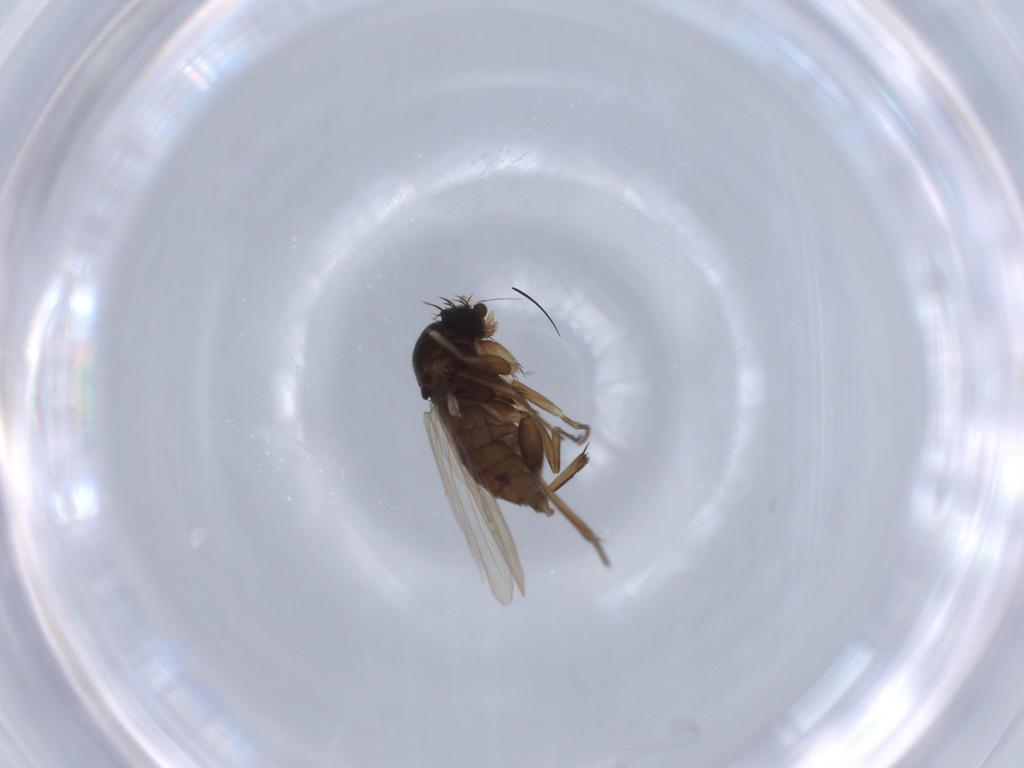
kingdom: Animalia
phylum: Arthropoda
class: Insecta
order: Diptera
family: Phoridae
